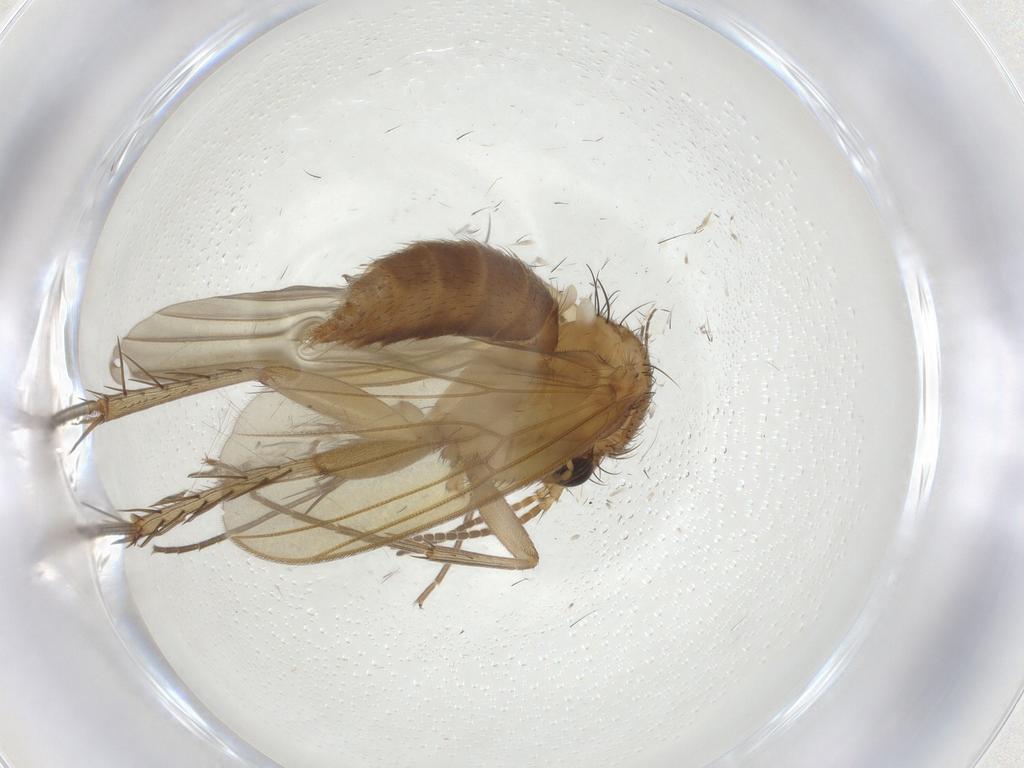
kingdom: Animalia
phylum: Arthropoda
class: Insecta
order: Diptera
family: Mycetophilidae
